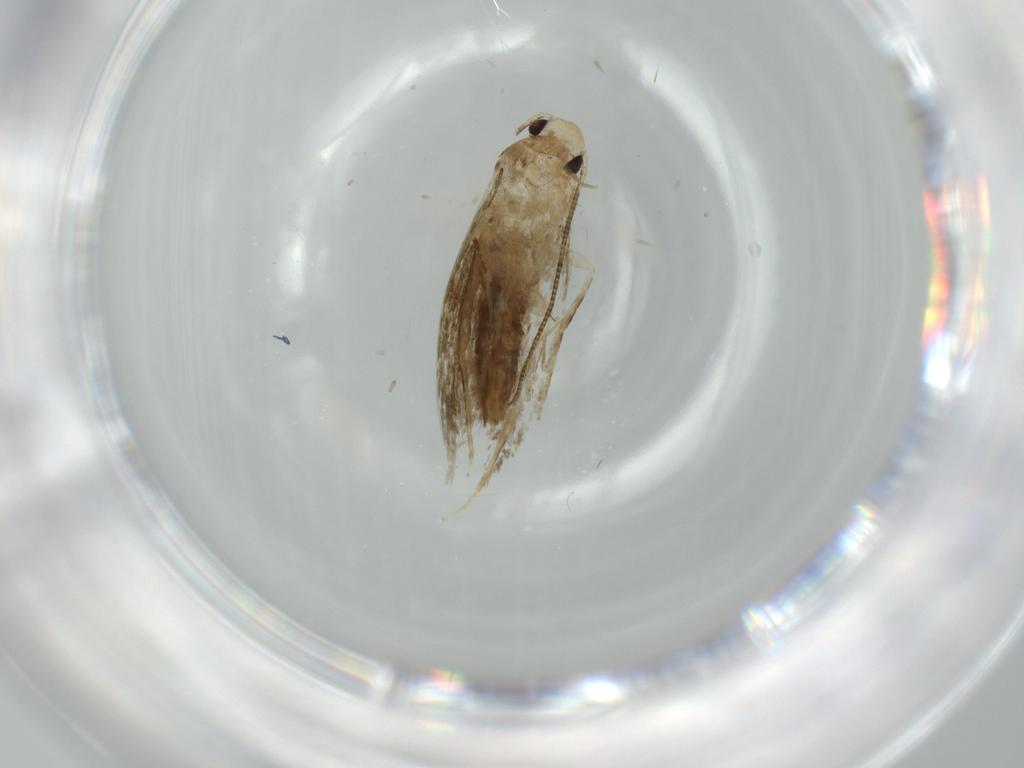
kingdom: Animalia
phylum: Arthropoda
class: Insecta
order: Lepidoptera
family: Tineidae
